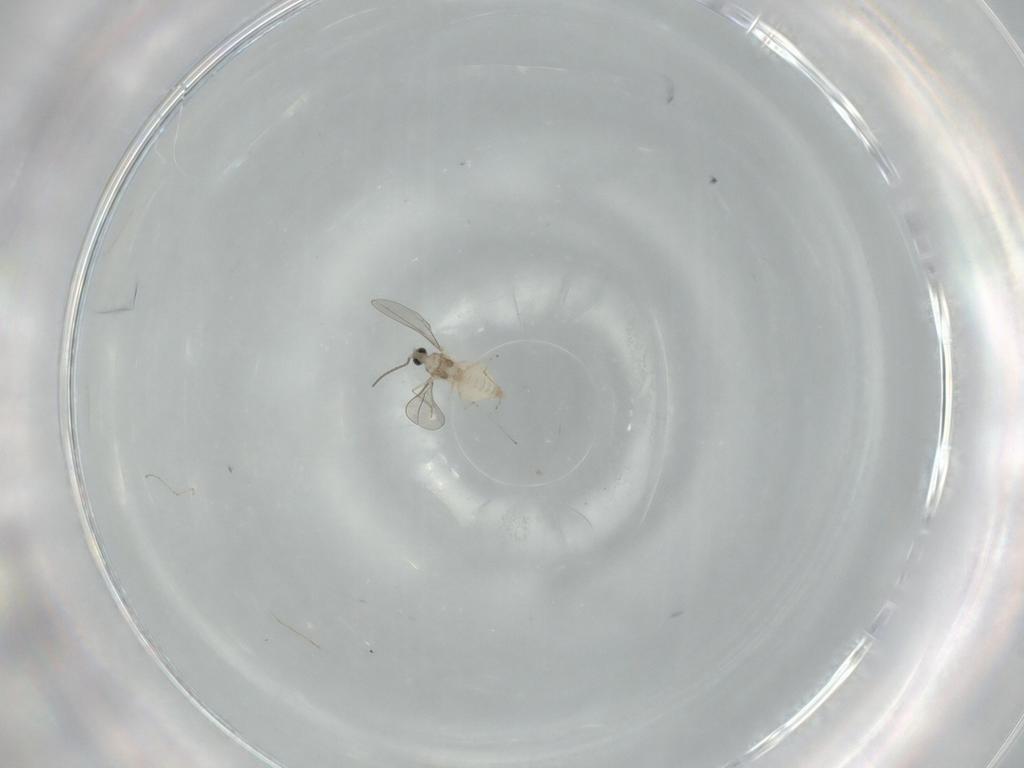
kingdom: Animalia
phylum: Arthropoda
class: Insecta
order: Diptera
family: Cecidomyiidae
